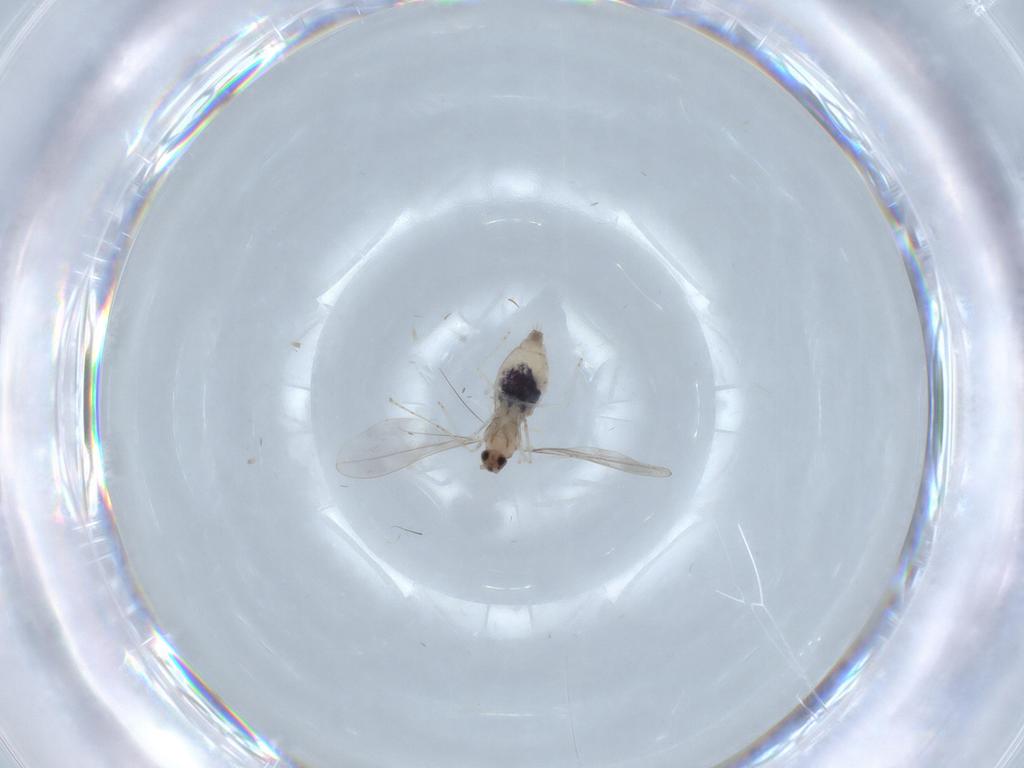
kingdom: Animalia
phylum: Arthropoda
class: Insecta
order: Diptera
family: Cecidomyiidae
